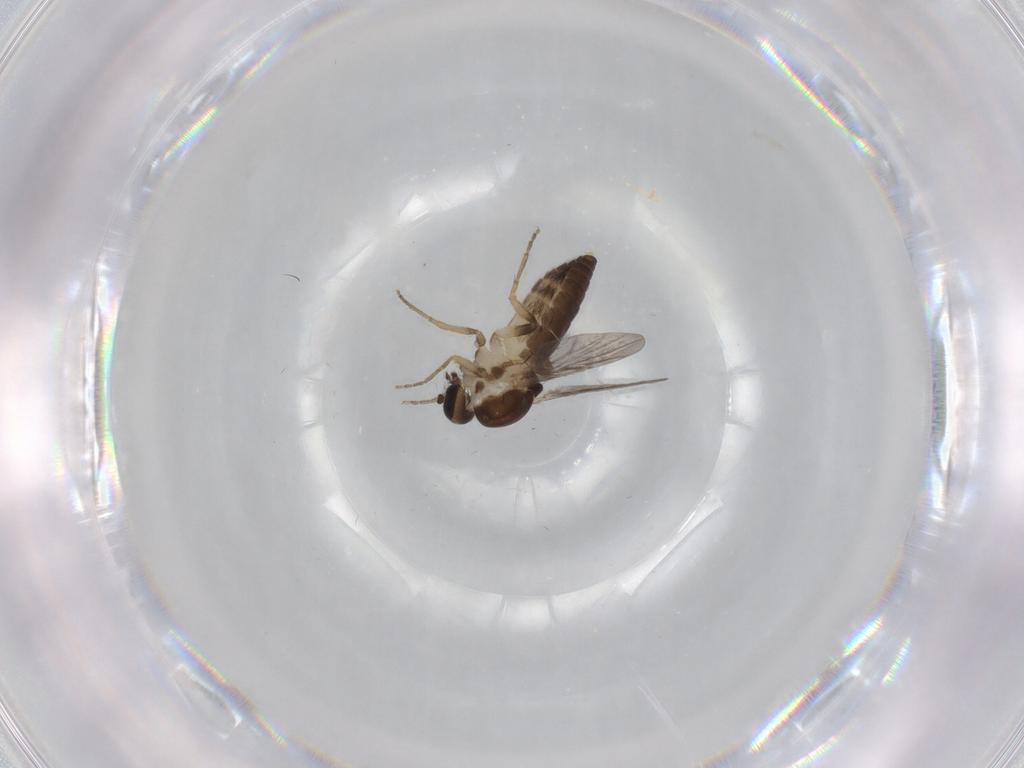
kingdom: Animalia
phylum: Arthropoda
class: Insecta
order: Diptera
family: Ceratopogonidae
